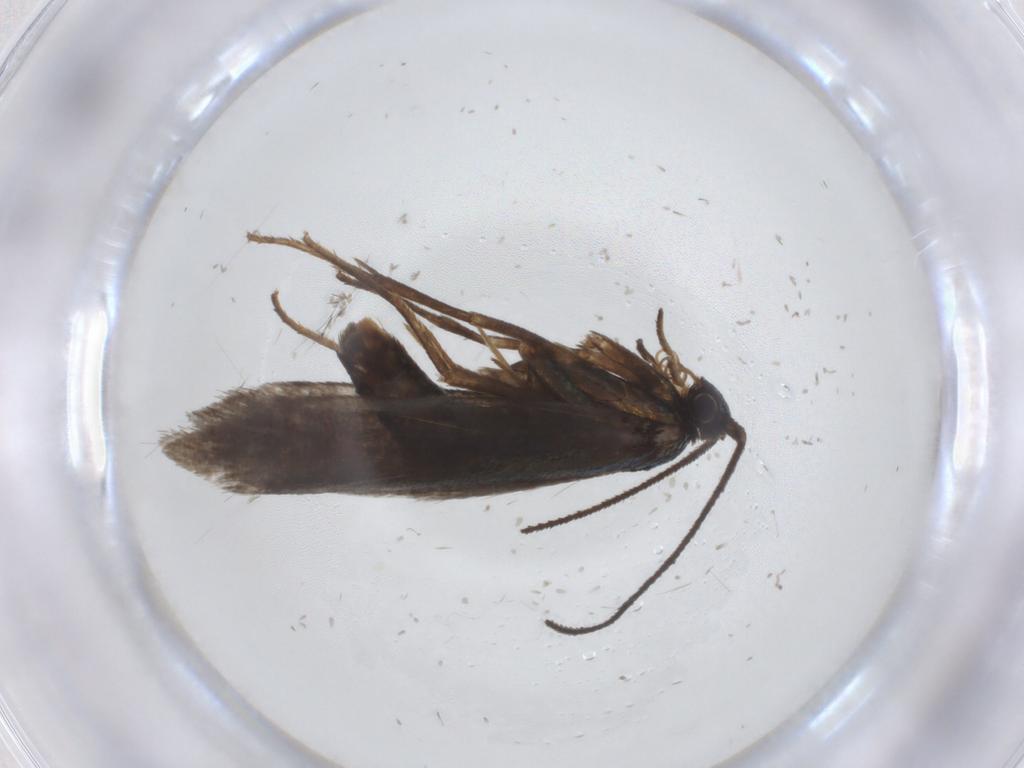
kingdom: Animalia
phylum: Arthropoda
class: Insecta
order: Lepidoptera
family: Argyresthiidae
